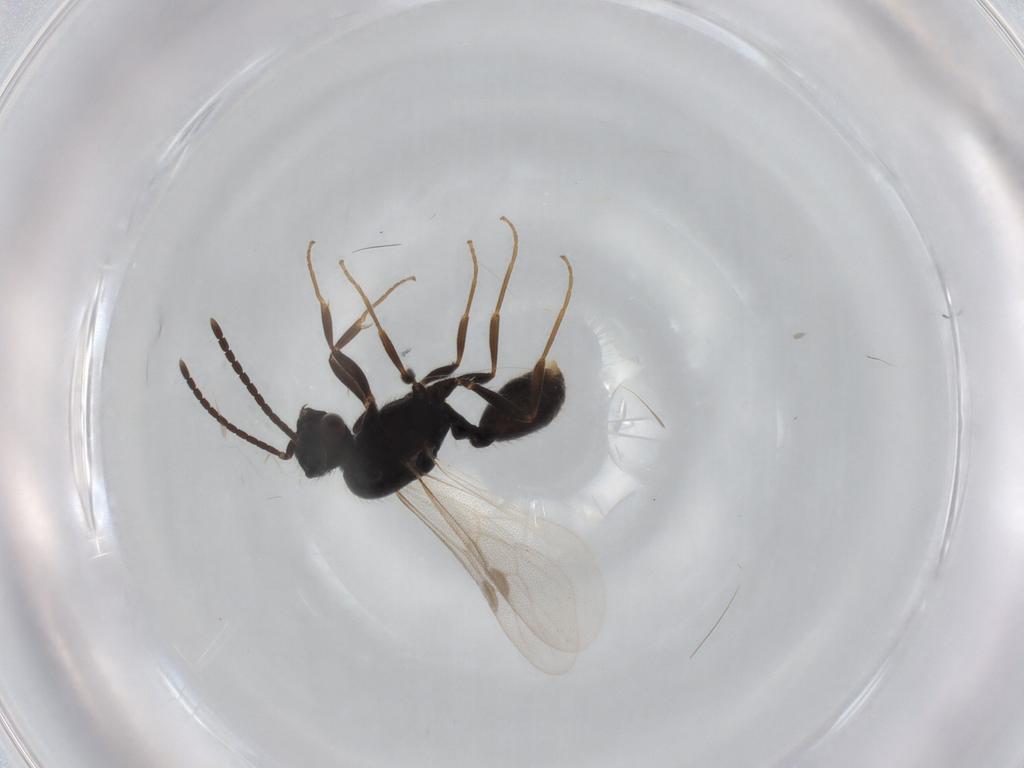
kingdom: Animalia
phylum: Arthropoda
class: Insecta
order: Hymenoptera
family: Formicidae
